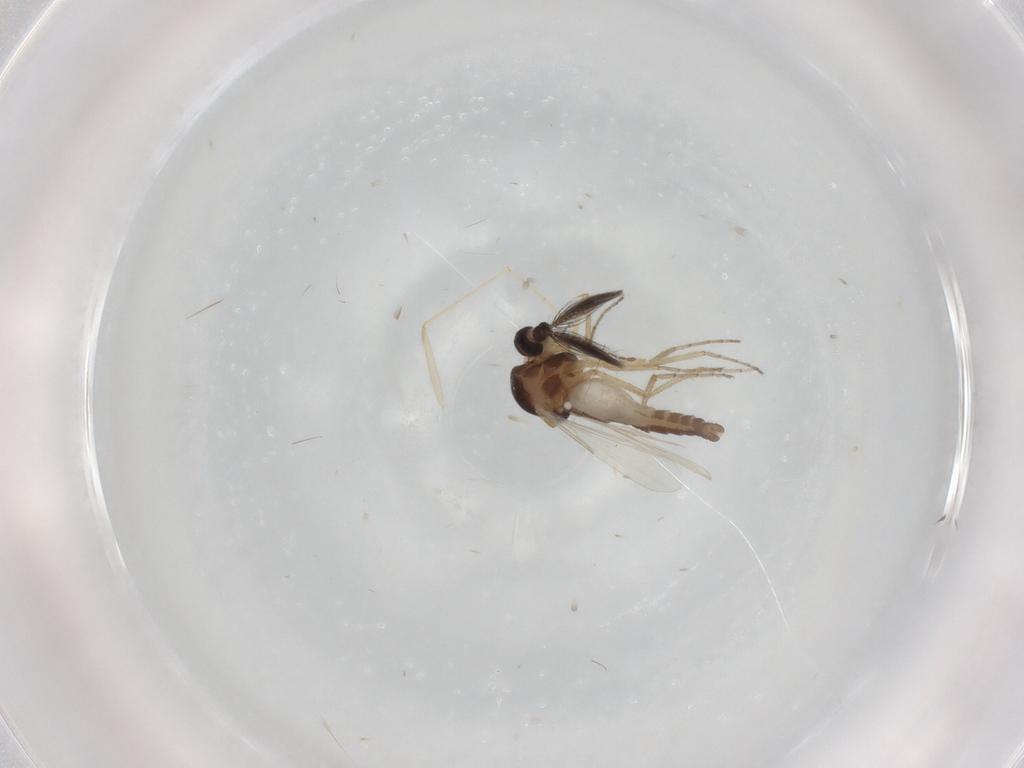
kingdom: Animalia
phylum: Arthropoda
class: Insecta
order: Diptera
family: Ceratopogonidae
